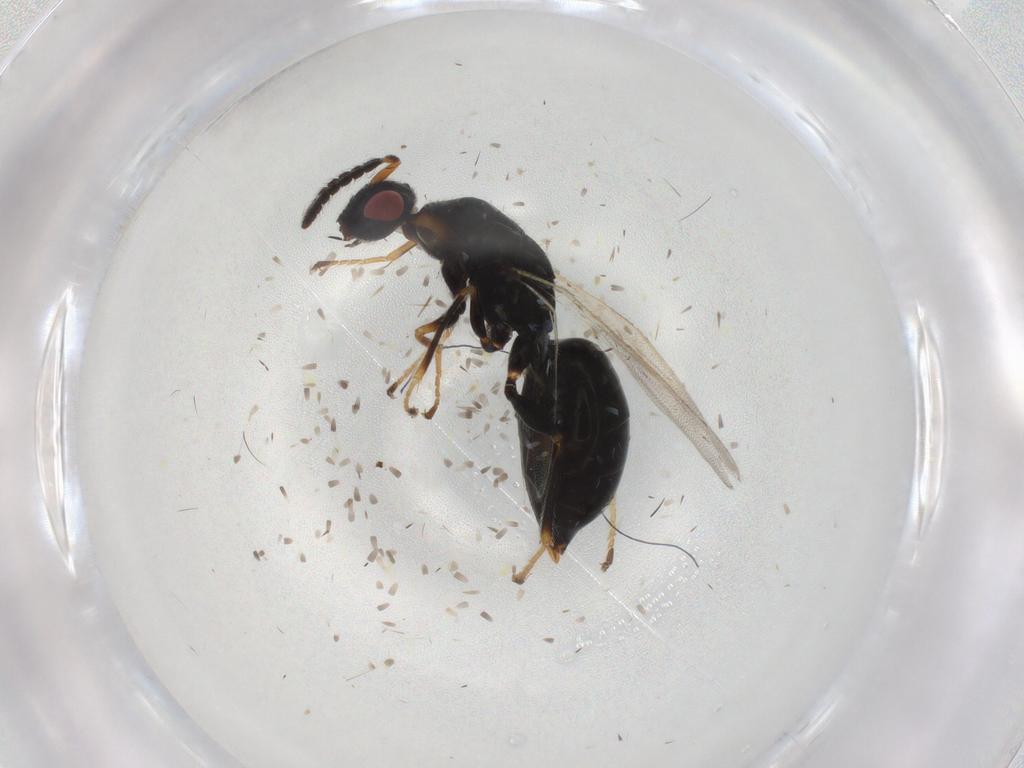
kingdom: Animalia
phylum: Arthropoda
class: Insecta
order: Hymenoptera
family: Eurytomidae
